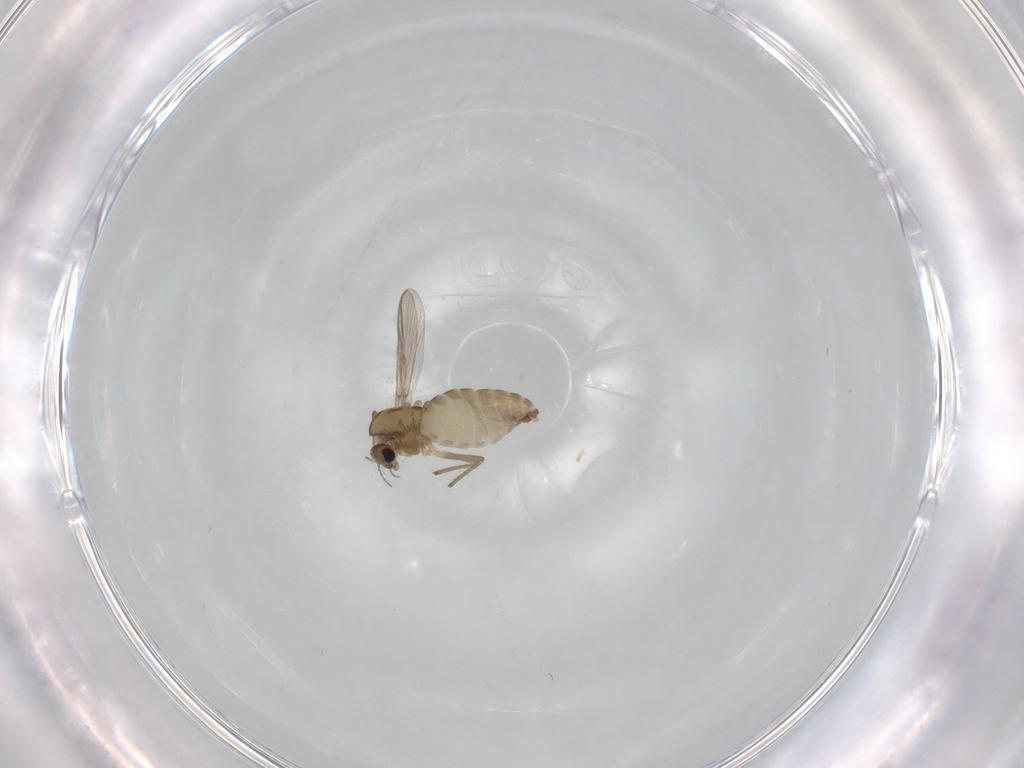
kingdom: Animalia
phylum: Arthropoda
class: Insecta
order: Diptera
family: Chironomidae
